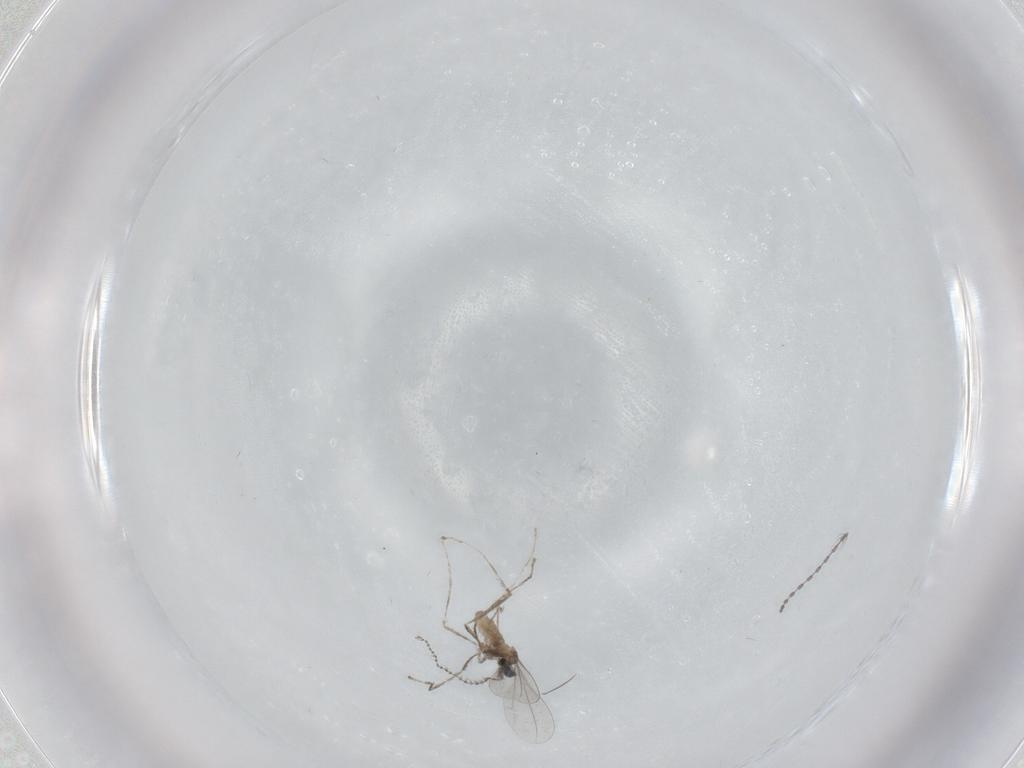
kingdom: Animalia
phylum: Arthropoda
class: Insecta
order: Diptera
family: Cecidomyiidae
